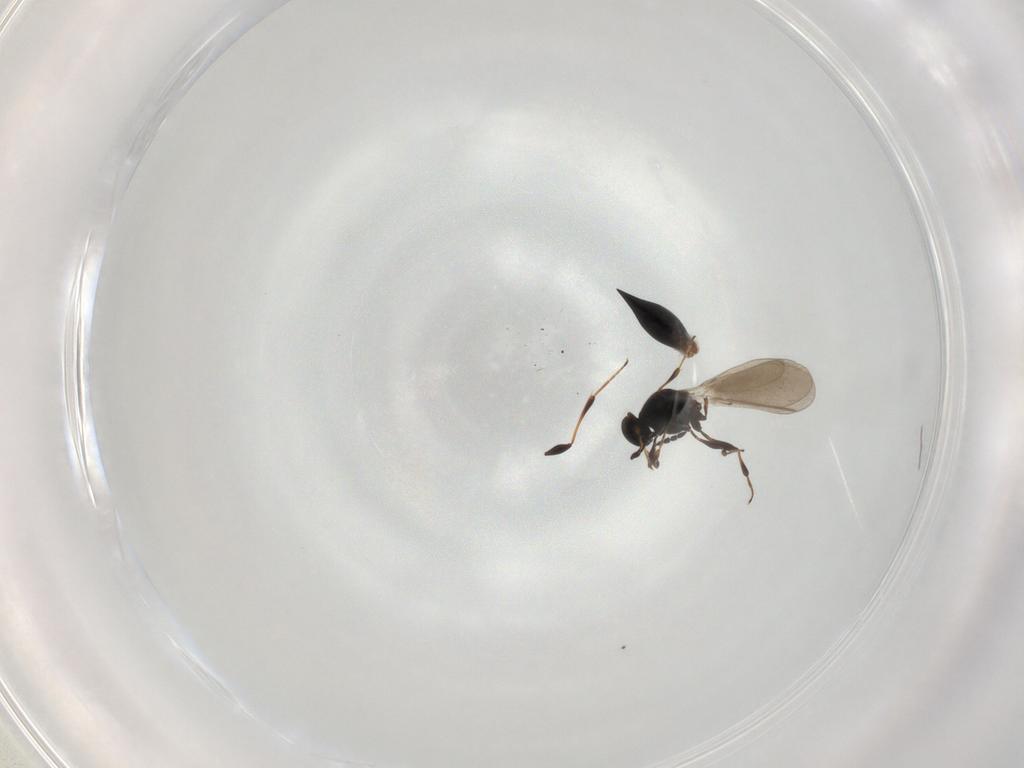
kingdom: Animalia
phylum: Arthropoda
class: Insecta
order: Hymenoptera
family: Platygastridae
